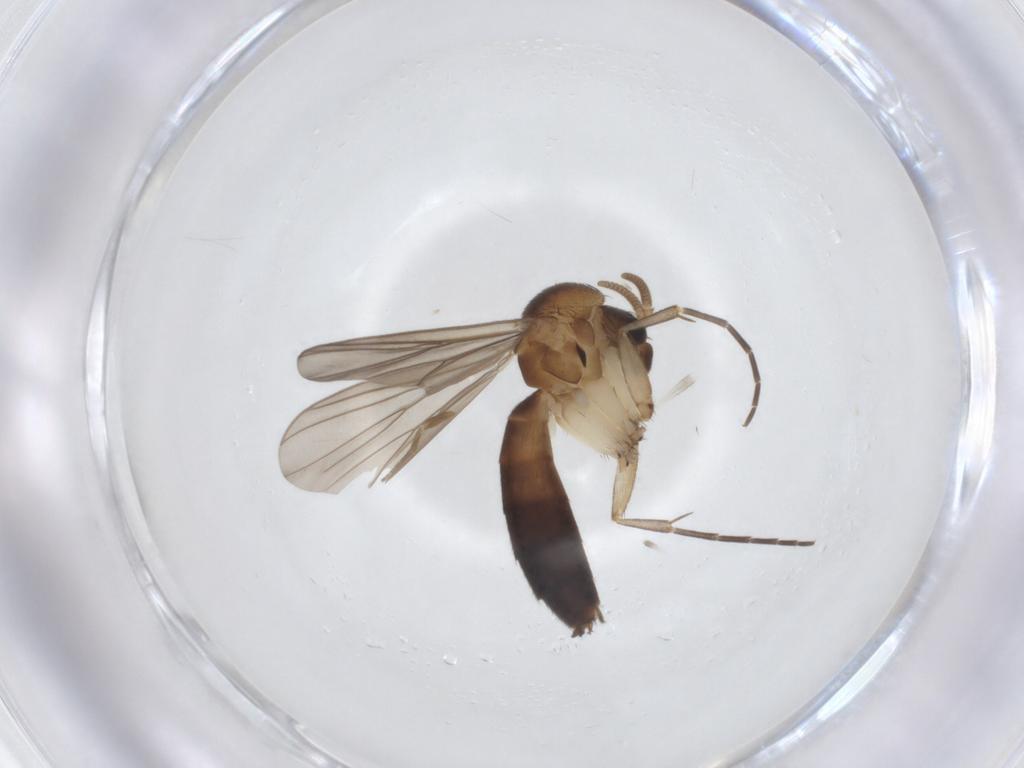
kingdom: Animalia
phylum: Arthropoda
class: Insecta
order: Diptera
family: Mycetophilidae
